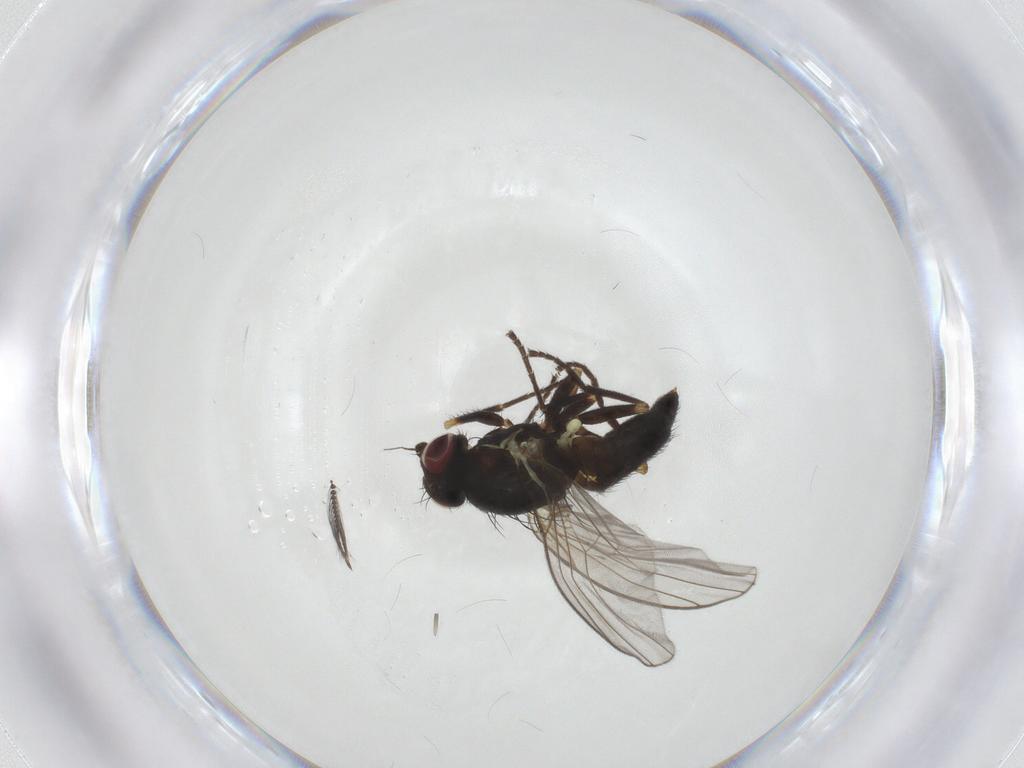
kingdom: Animalia
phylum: Arthropoda
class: Insecta
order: Diptera
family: Agromyzidae
